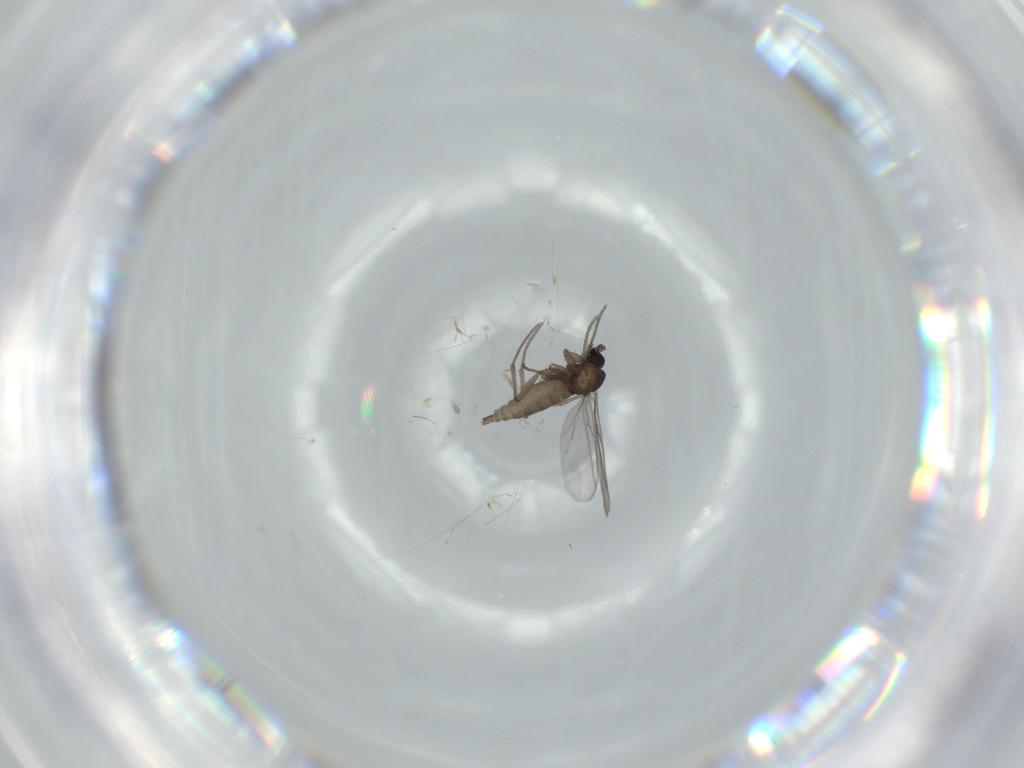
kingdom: Animalia
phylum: Arthropoda
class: Insecta
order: Diptera
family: Sciaridae
